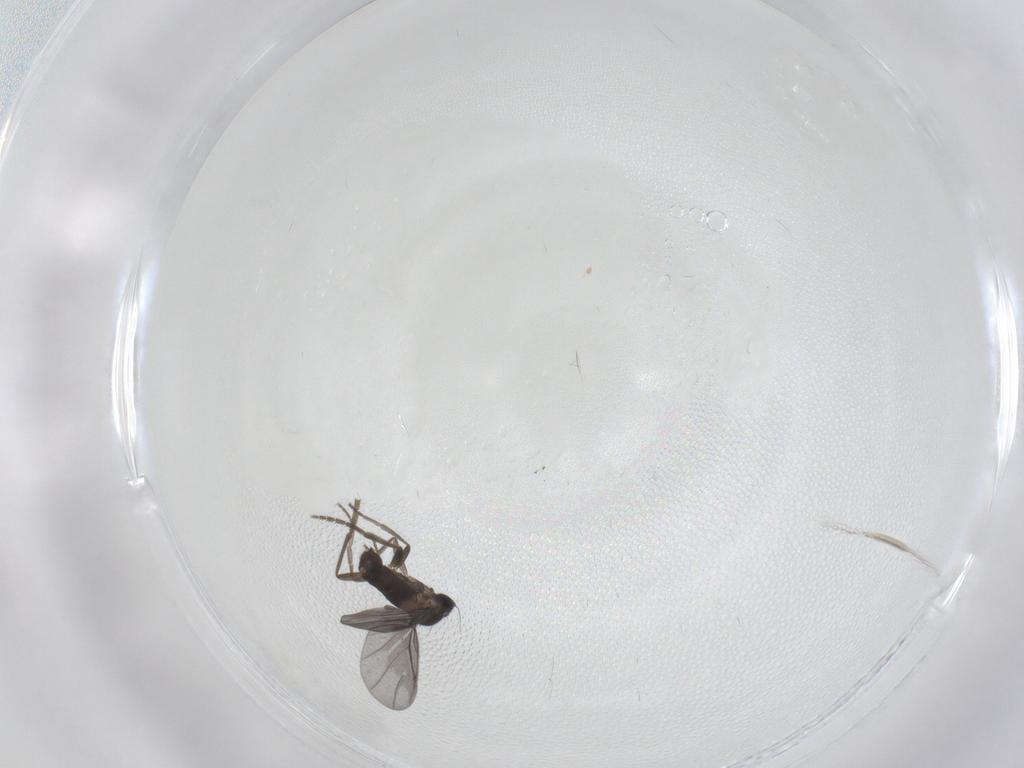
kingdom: Animalia
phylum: Arthropoda
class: Insecta
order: Diptera
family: Phoridae
